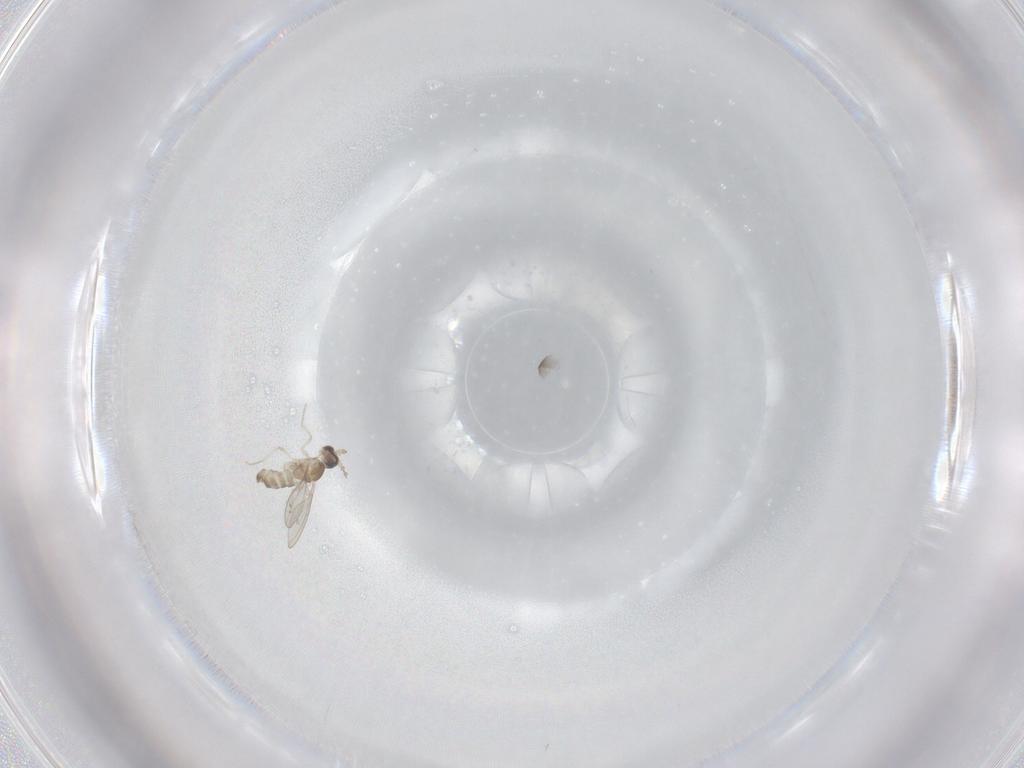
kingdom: Animalia
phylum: Arthropoda
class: Insecta
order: Diptera
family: Cecidomyiidae
